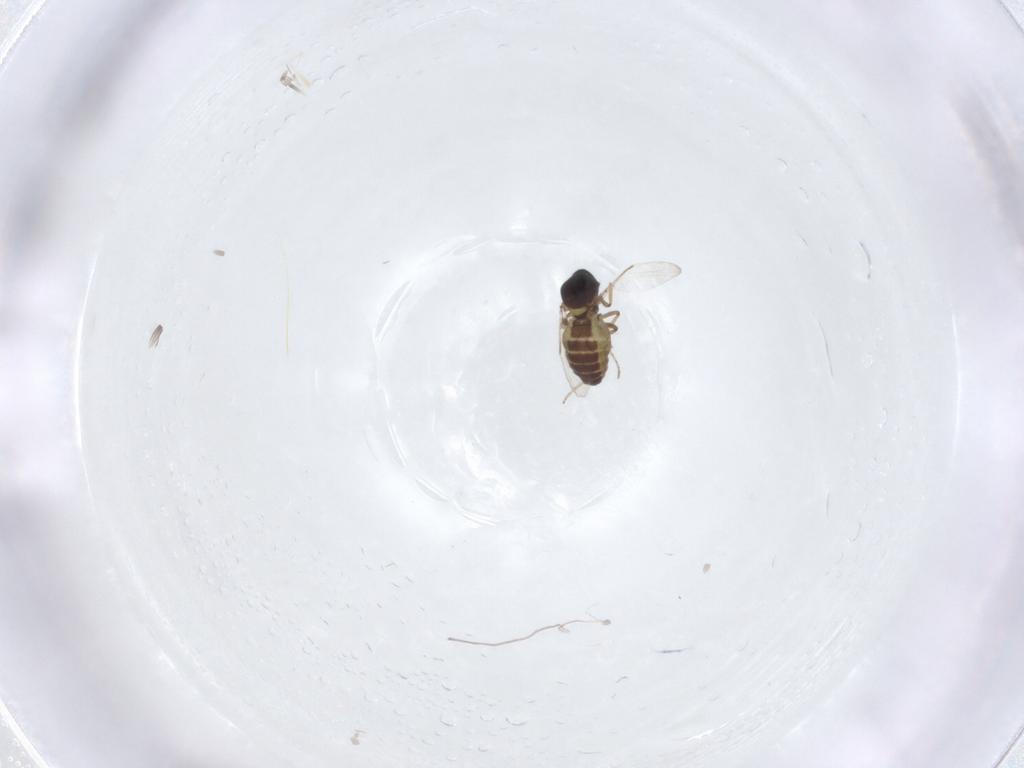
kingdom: Animalia
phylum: Arthropoda
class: Insecta
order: Diptera
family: Ceratopogonidae
